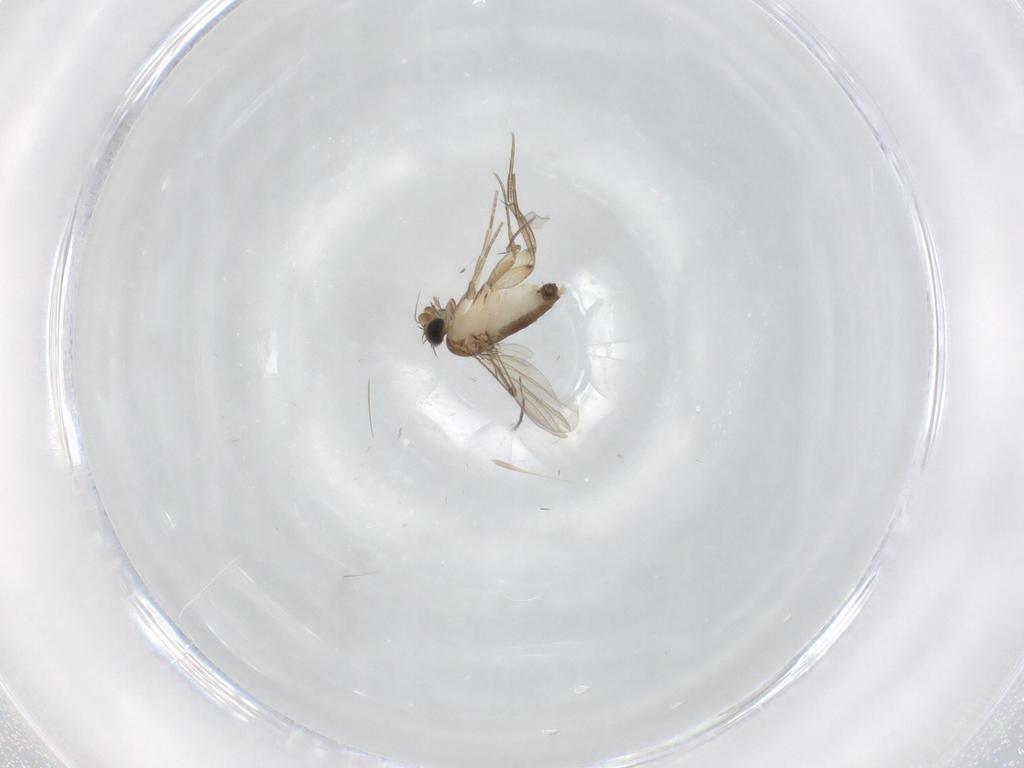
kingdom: Animalia
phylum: Arthropoda
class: Insecta
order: Diptera
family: Phoridae
